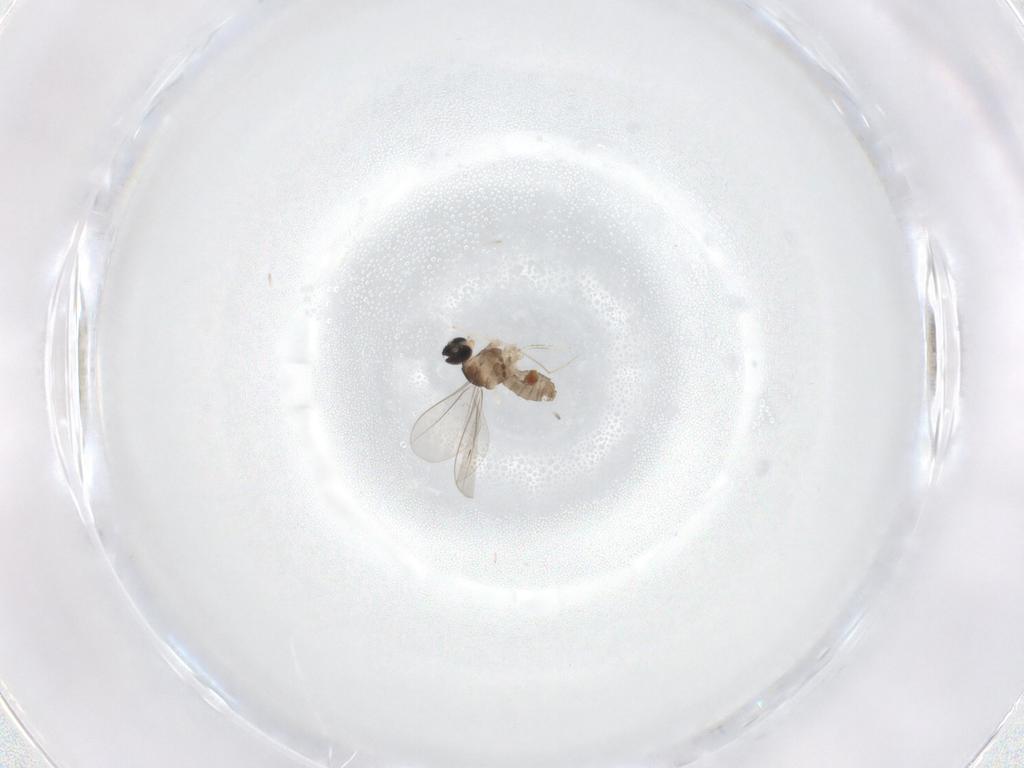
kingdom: Animalia
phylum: Arthropoda
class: Insecta
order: Diptera
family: Cecidomyiidae
